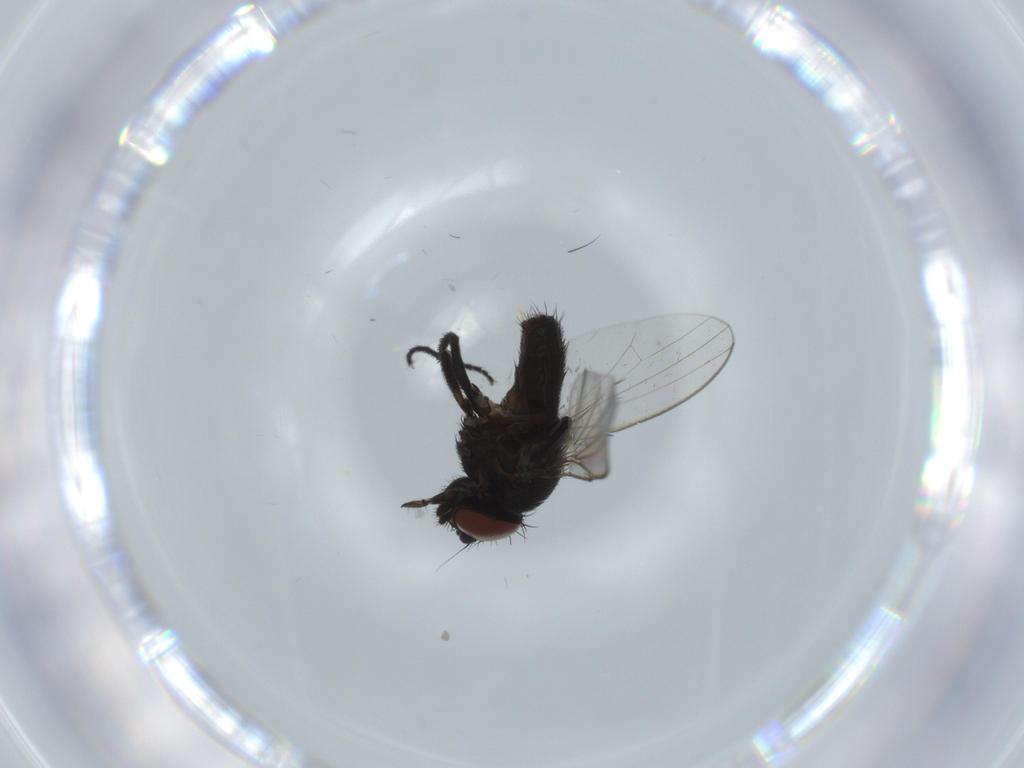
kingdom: Animalia
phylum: Arthropoda
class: Insecta
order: Diptera
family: Milichiidae
